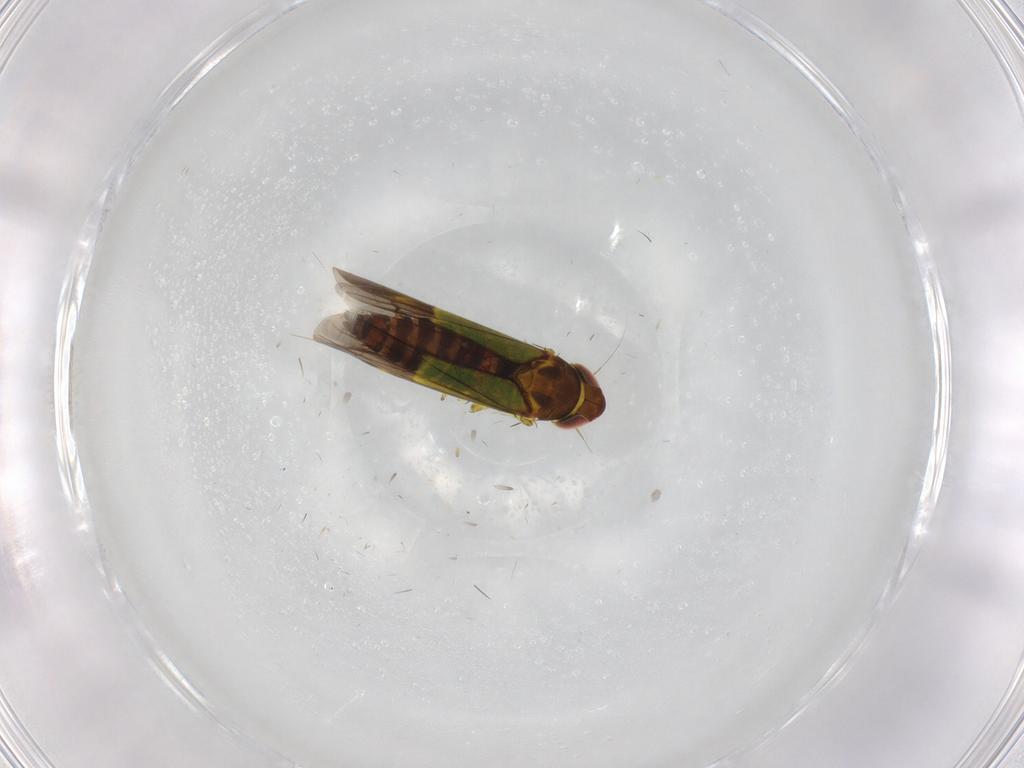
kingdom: Animalia
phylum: Arthropoda
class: Insecta
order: Hemiptera
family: Cicadellidae
